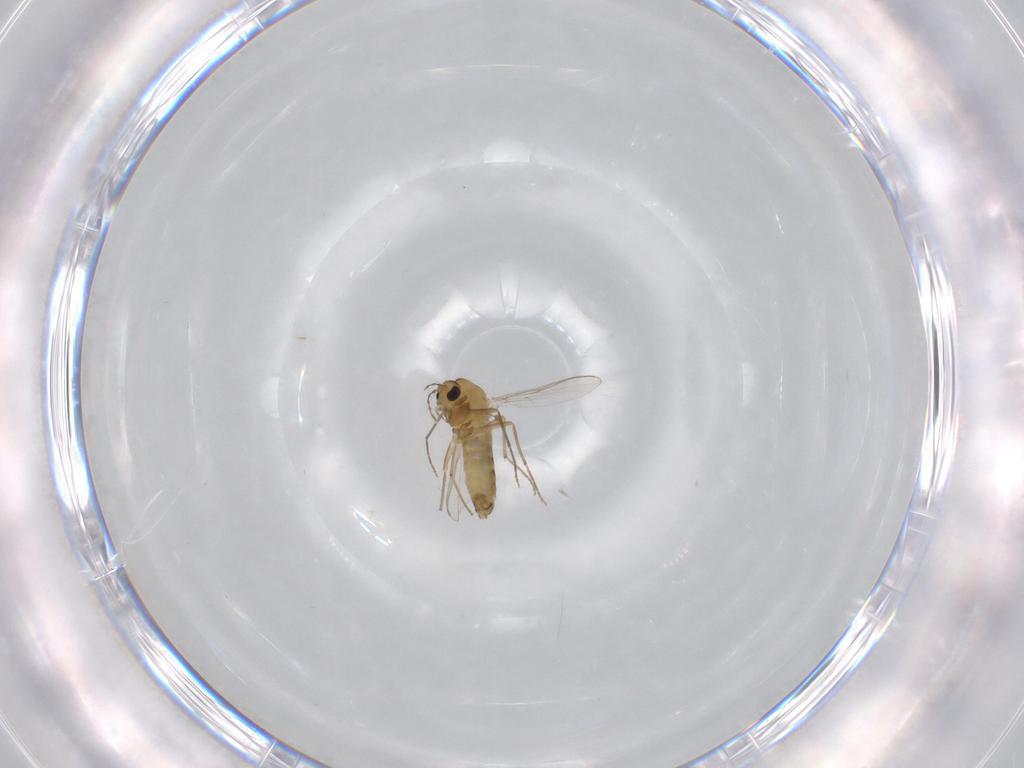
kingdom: Animalia
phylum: Arthropoda
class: Insecta
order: Diptera
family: Chironomidae
